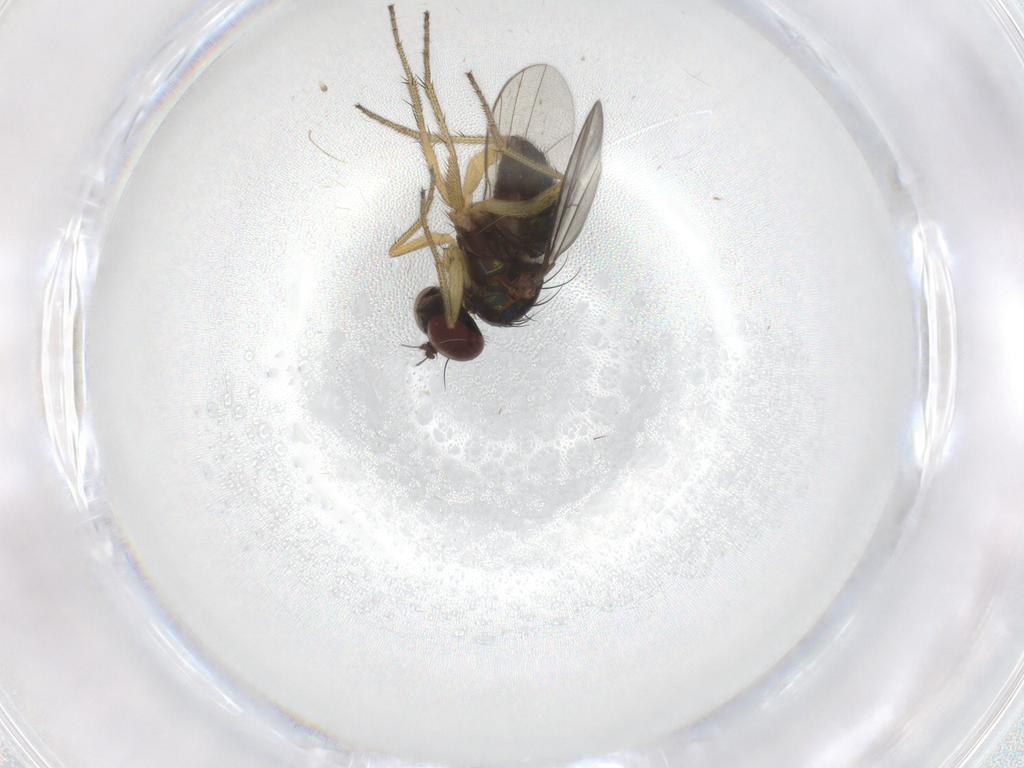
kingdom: Animalia
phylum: Arthropoda
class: Insecta
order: Diptera
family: Dolichopodidae
